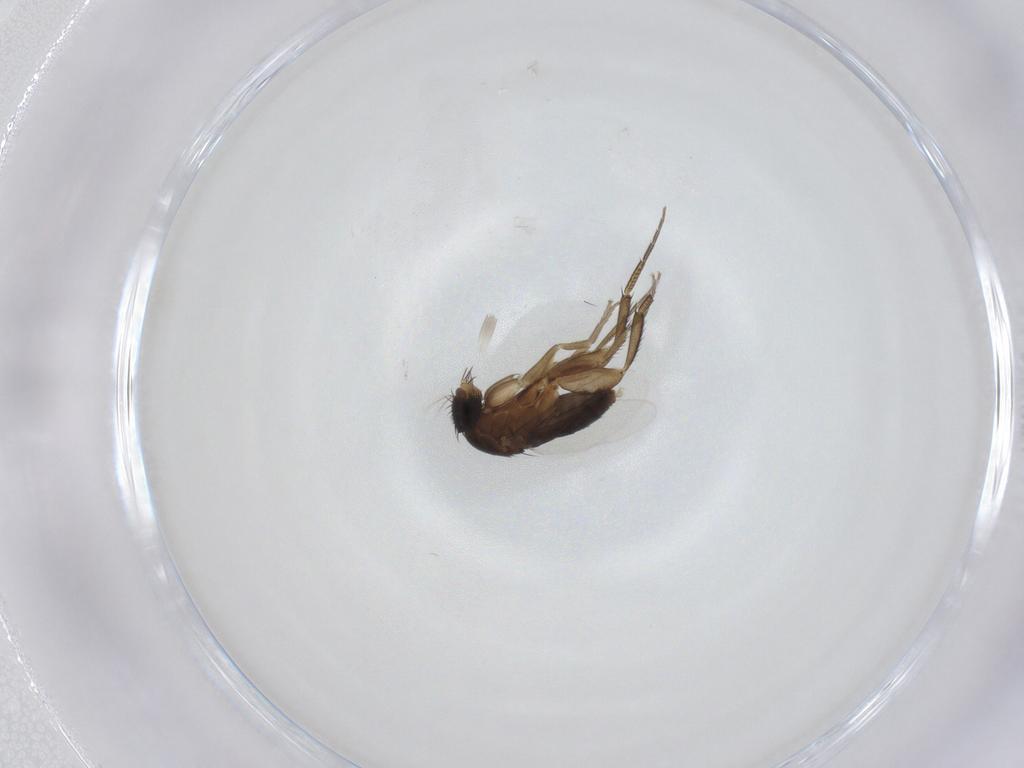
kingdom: Animalia
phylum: Arthropoda
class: Insecta
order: Diptera
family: Phoridae
